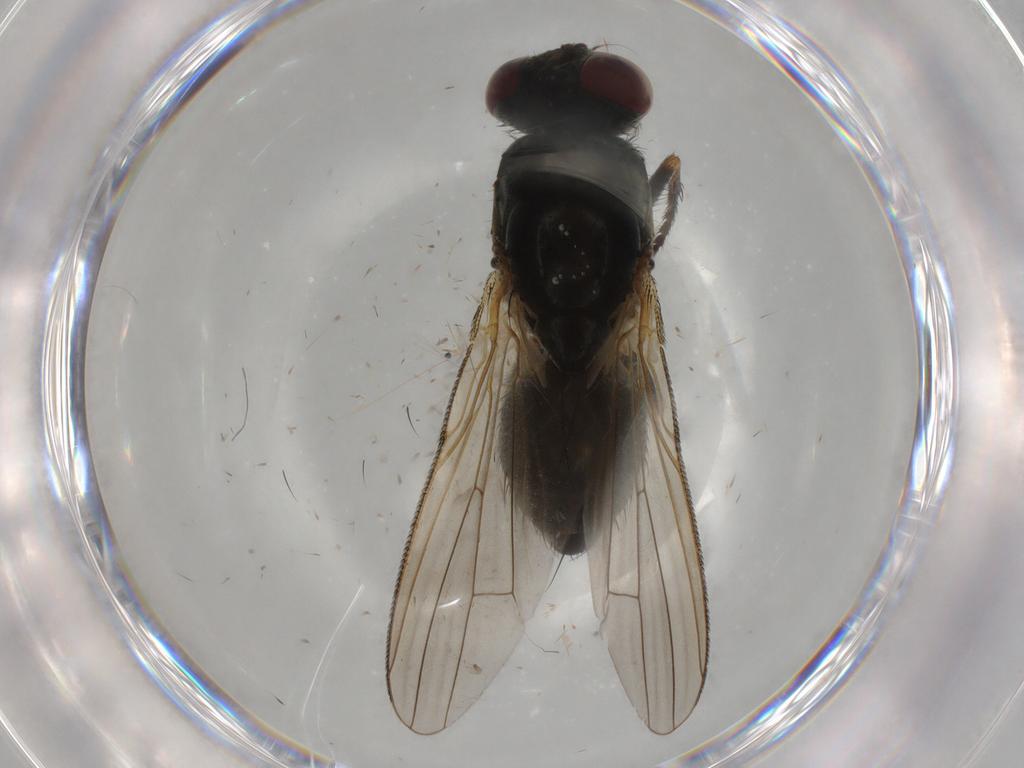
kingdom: Animalia
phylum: Arthropoda
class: Insecta
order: Diptera
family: Muscidae
